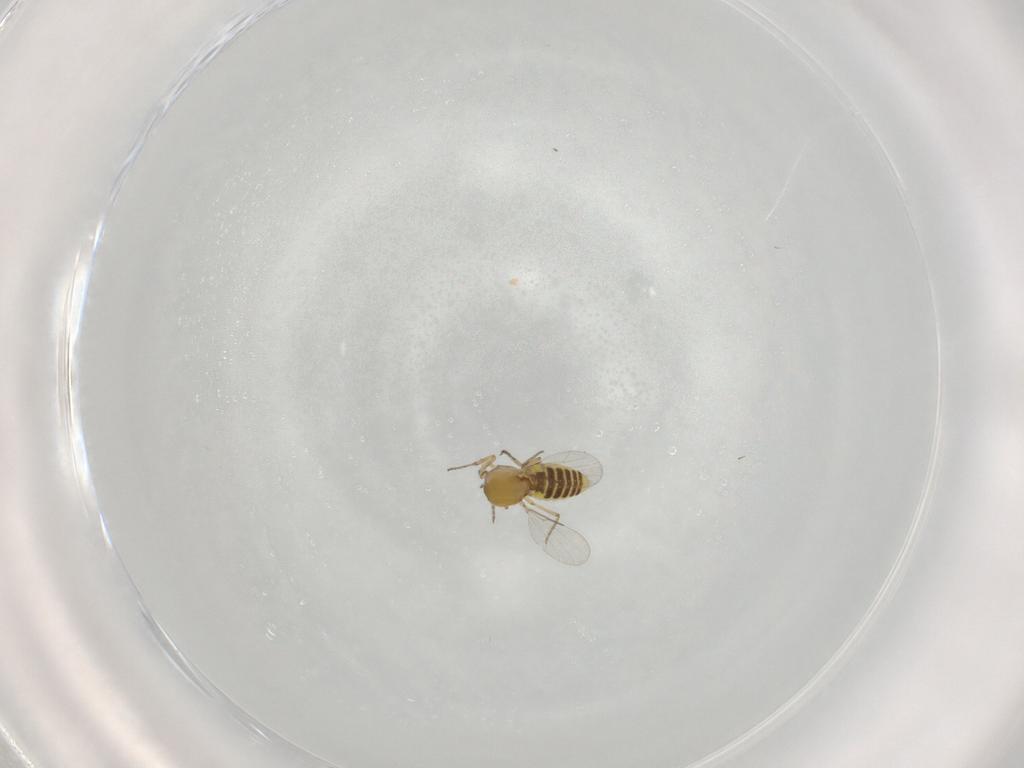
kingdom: Animalia
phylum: Arthropoda
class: Insecta
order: Diptera
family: Ceratopogonidae
